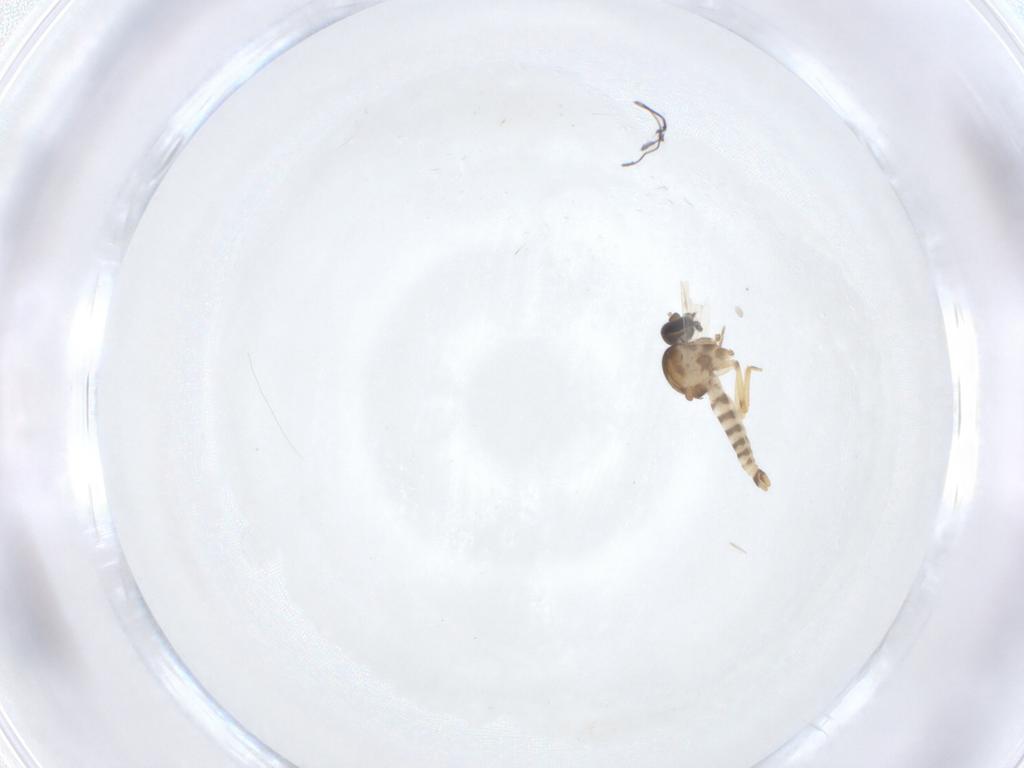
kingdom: Animalia
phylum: Arthropoda
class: Insecta
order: Diptera
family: Ceratopogonidae
